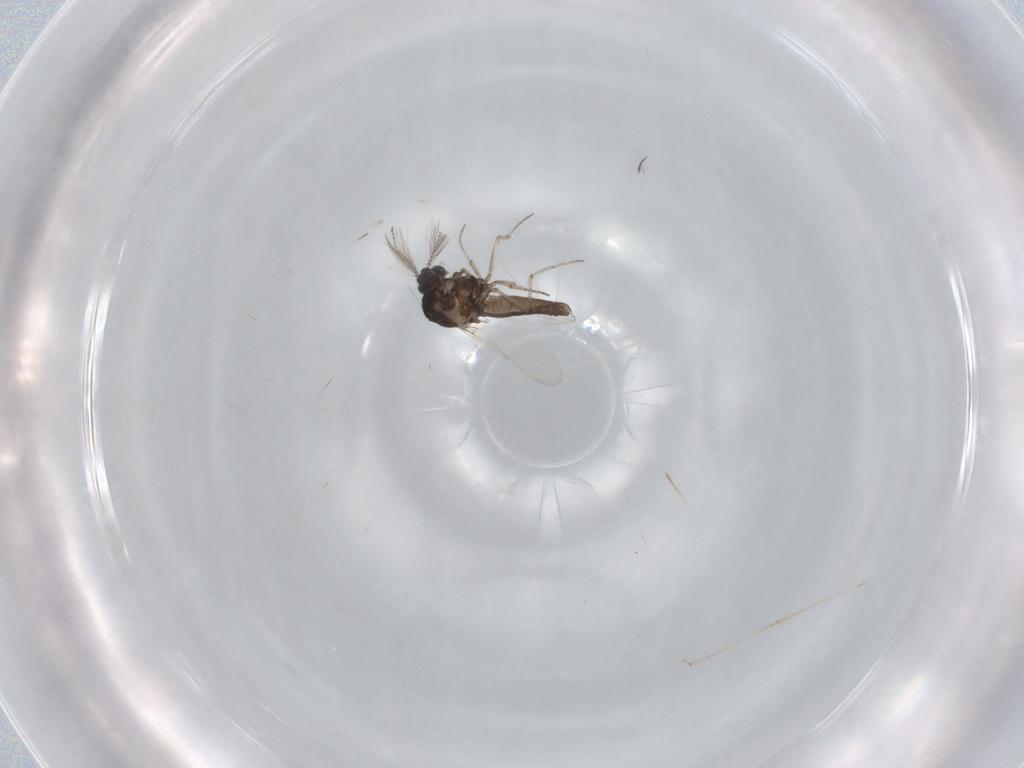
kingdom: Animalia
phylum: Arthropoda
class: Insecta
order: Diptera
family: Ceratopogonidae
